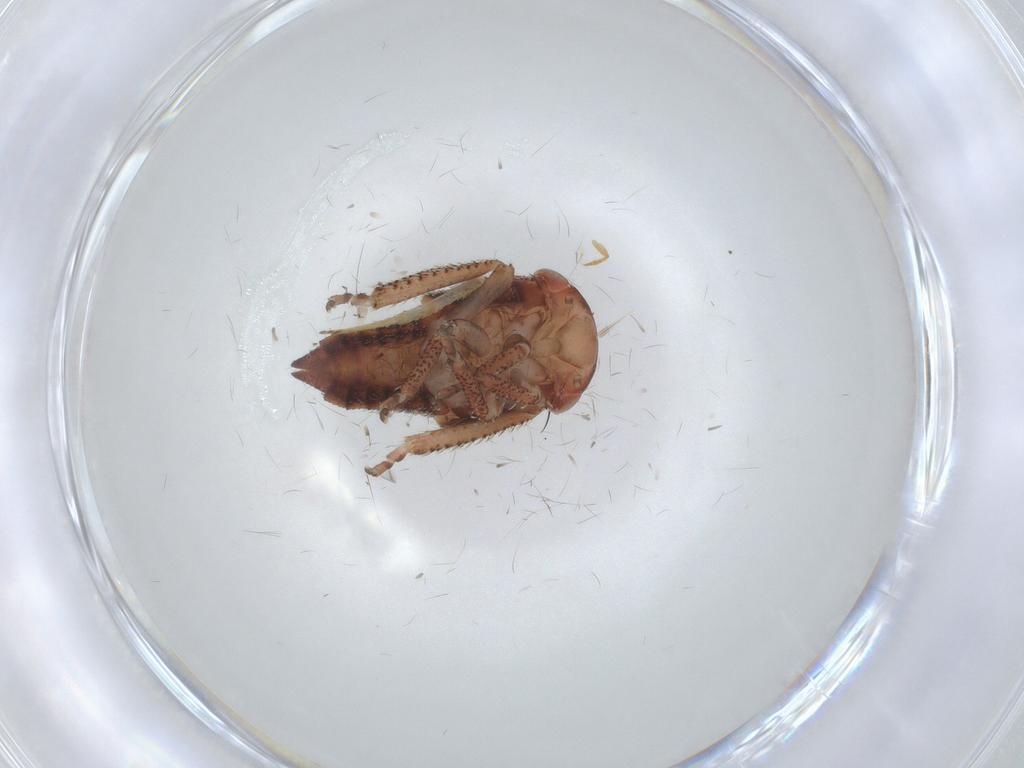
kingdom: Animalia
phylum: Arthropoda
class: Insecta
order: Lepidoptera
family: Lecithoceridae
